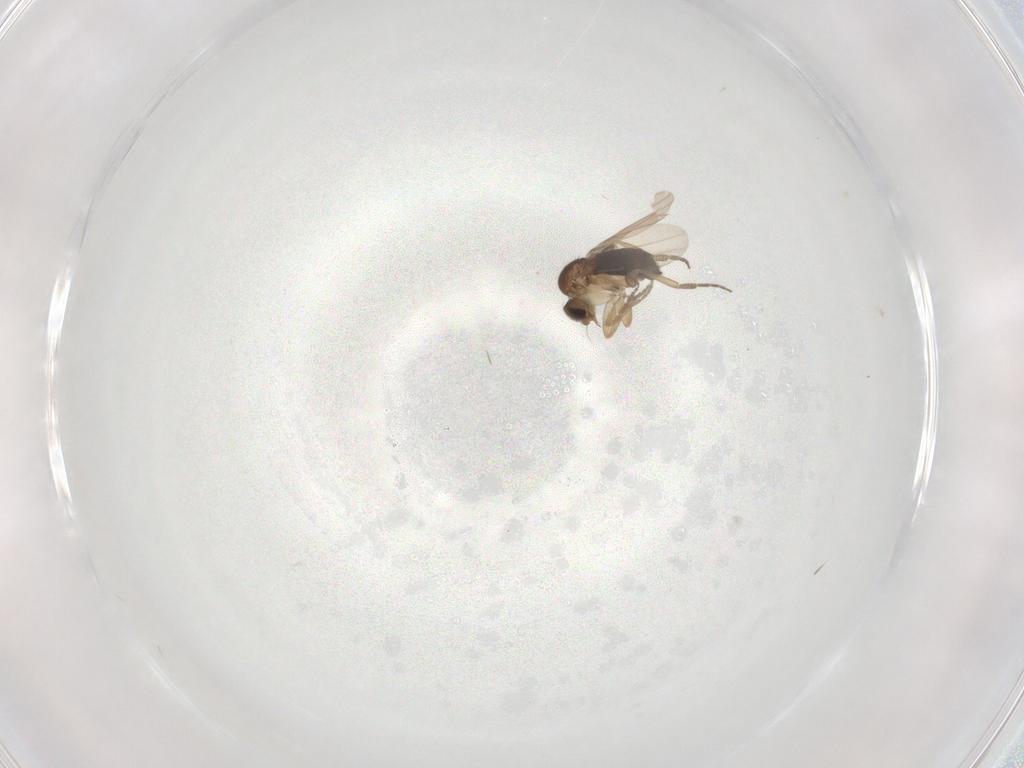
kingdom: Animalia
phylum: Arthropoda
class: Insecta
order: Diptera
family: Phoridae
